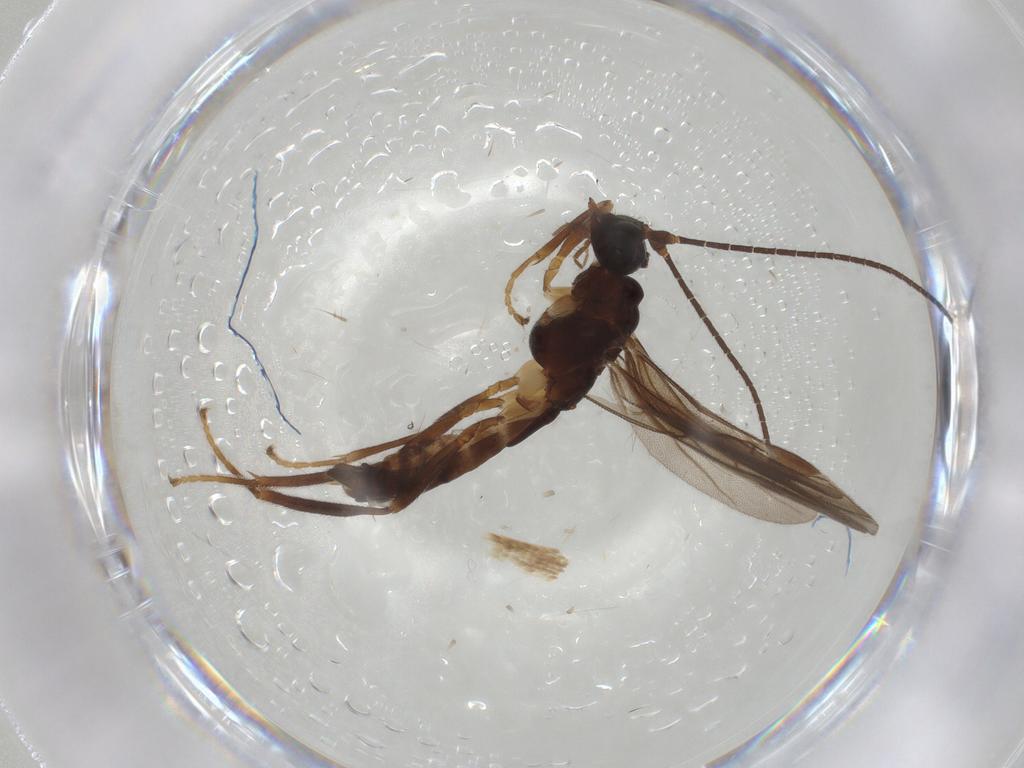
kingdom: Animalia
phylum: Arthropoda
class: Insecta
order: Hymenoptera
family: Braconidae
